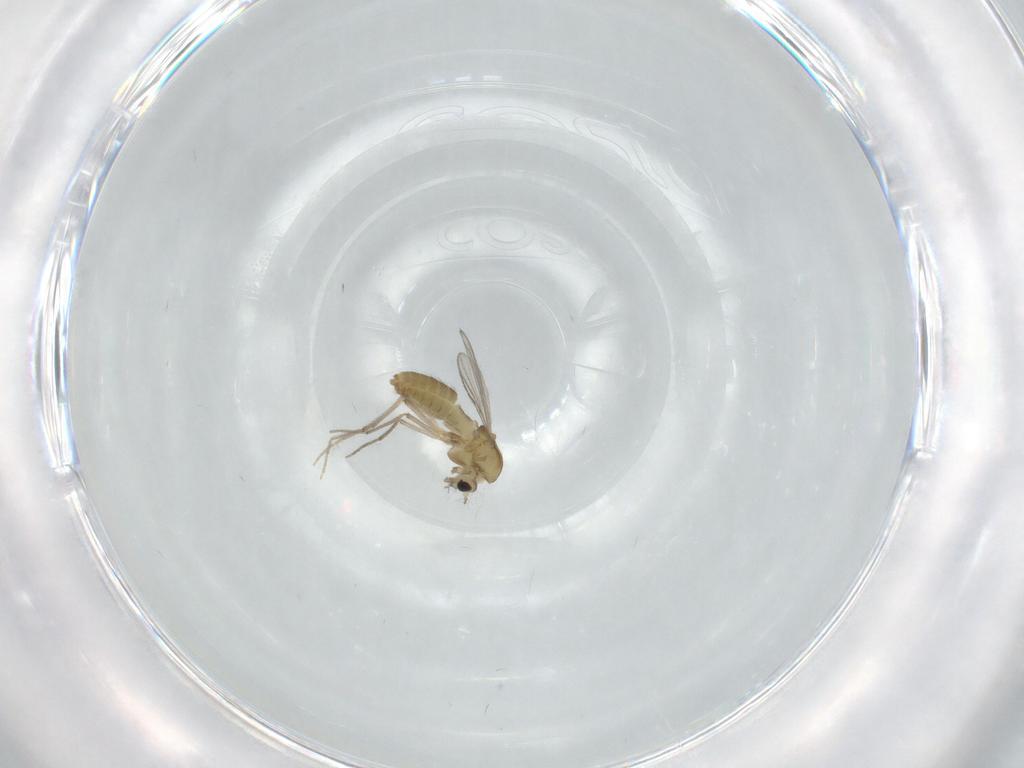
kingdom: Animalia
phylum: Arthropoda
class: Insecta
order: Diptera
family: Chironomidae
